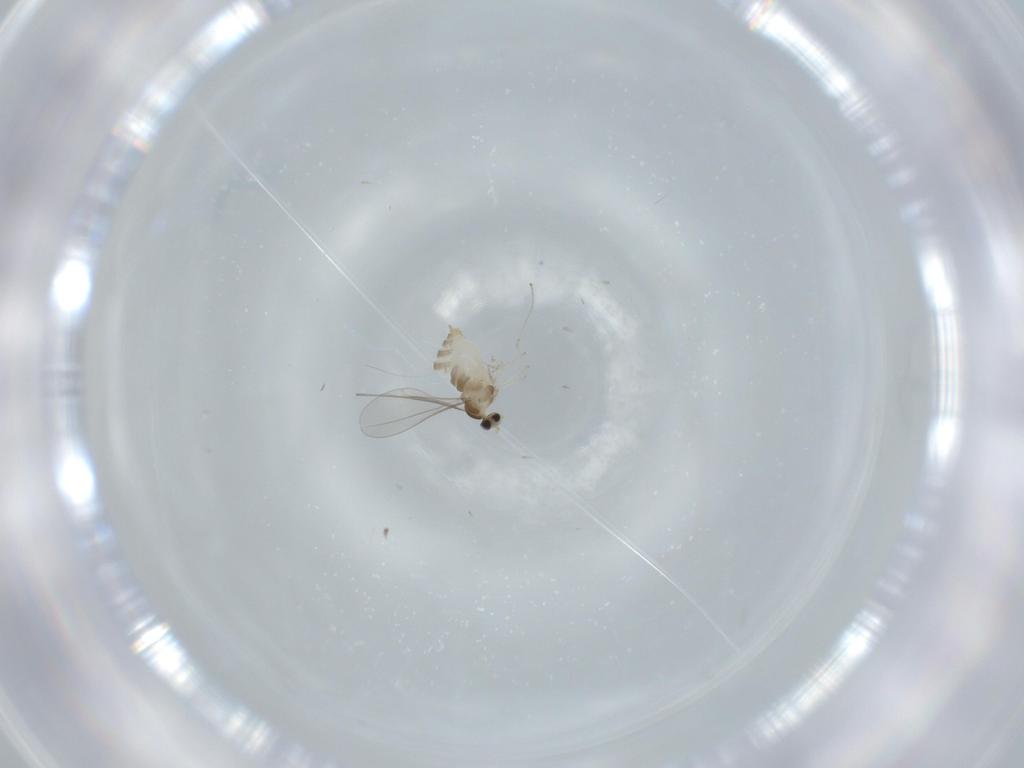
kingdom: Animalia
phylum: Arthropoda
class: Insecta
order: Diptera
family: Cecidomyiidae
